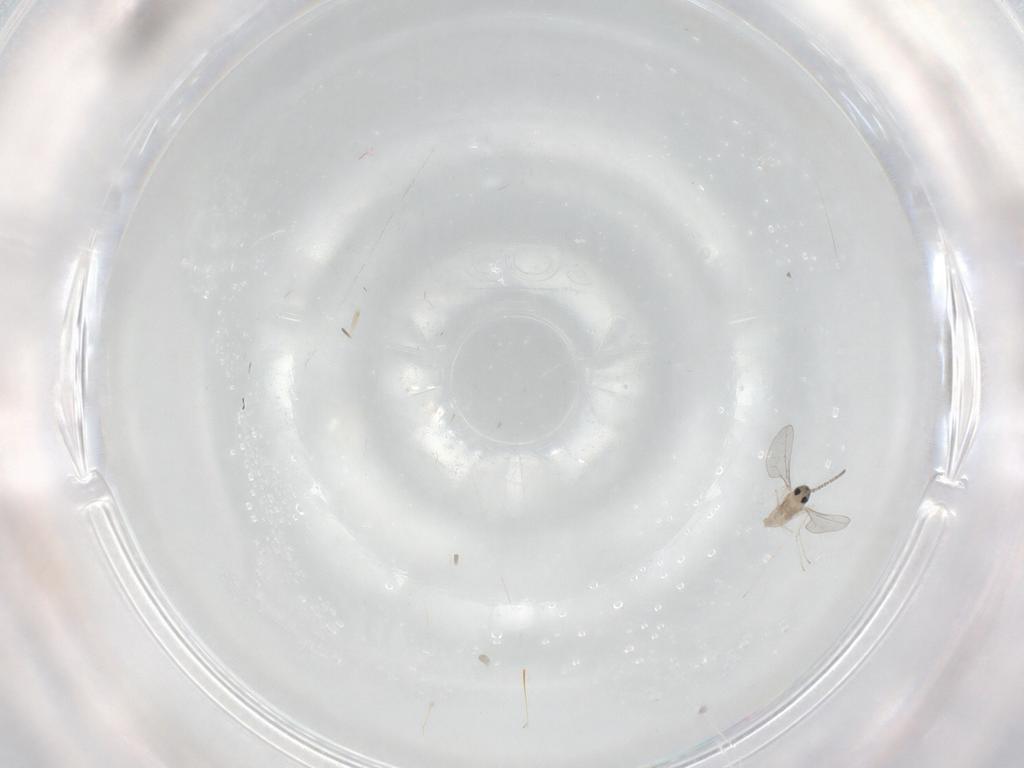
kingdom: Animalia
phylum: Arthropoda
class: Insecta
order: Diptera
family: Cecidomyiidae
